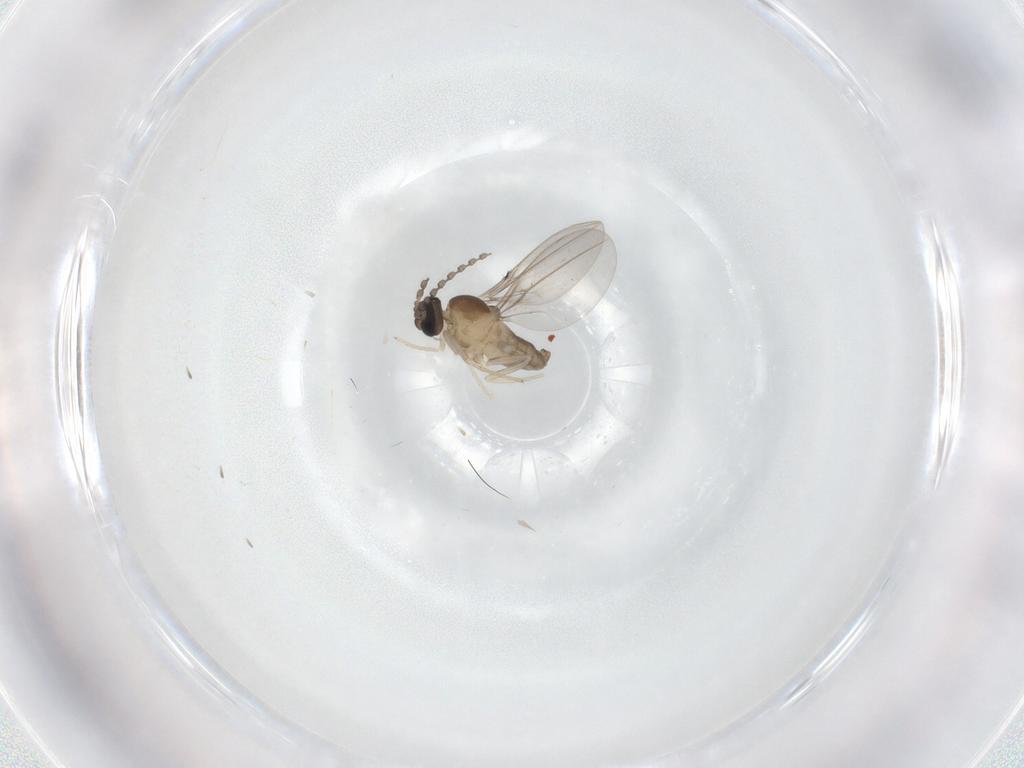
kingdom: Animalia
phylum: Arthropoda
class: Insecta
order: Diptera
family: Cecidomyiidae
